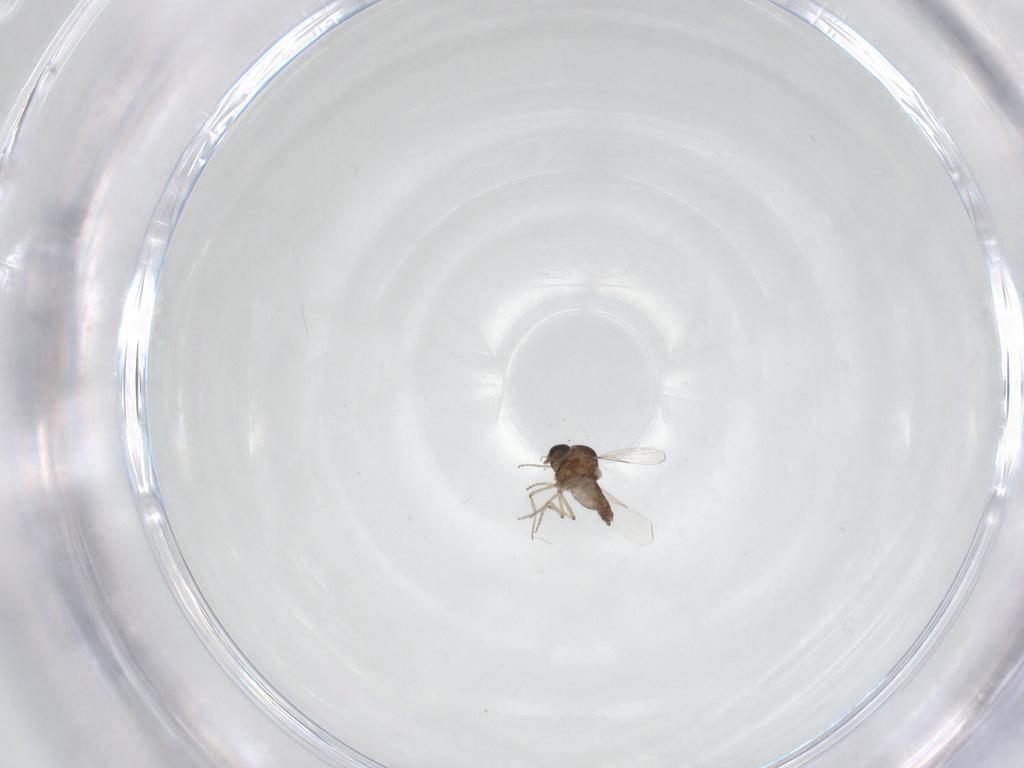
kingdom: Animalia
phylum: Arthropoda
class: Insecta
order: Diptera
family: Ceratopogonidae
